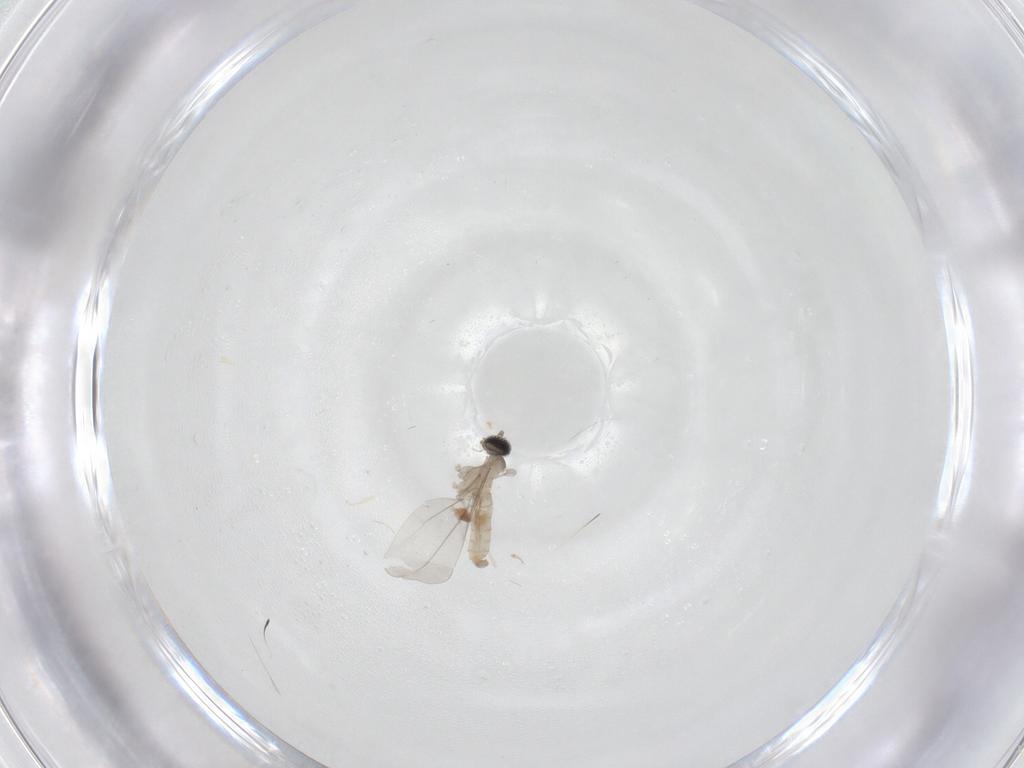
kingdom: Animalia
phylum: Arthropoda
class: Insecta
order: Diptera
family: Cecidomyiidae
